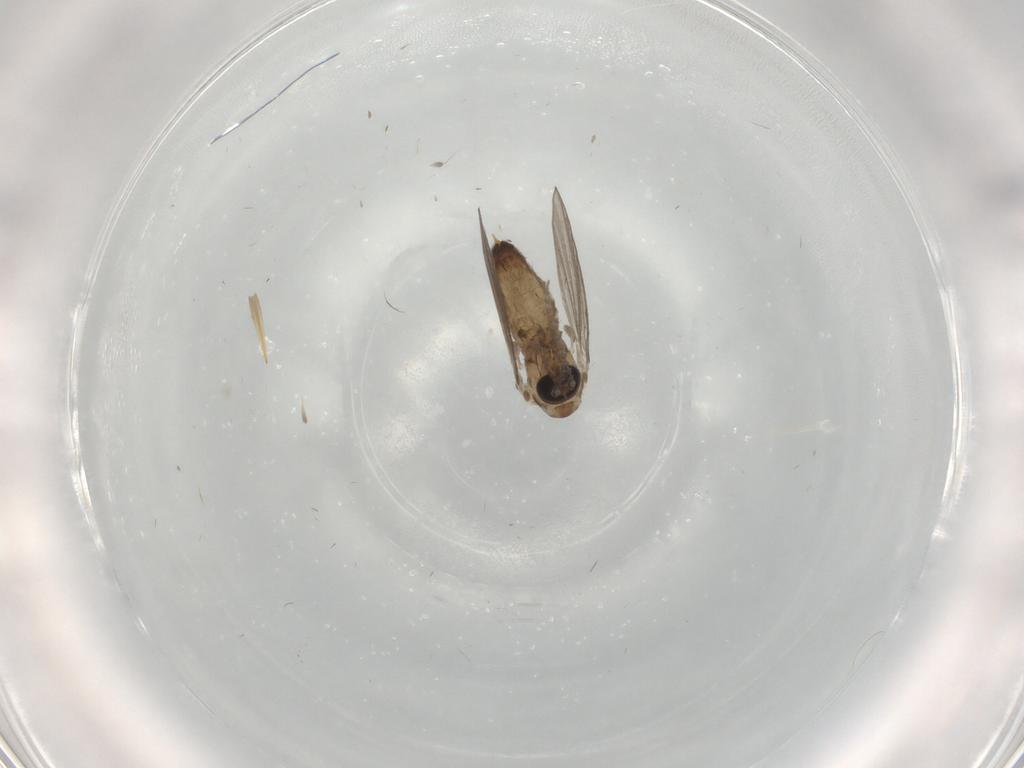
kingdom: Animalia
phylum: Arthropoda
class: Insecta
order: Diptera
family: Psychodidae
